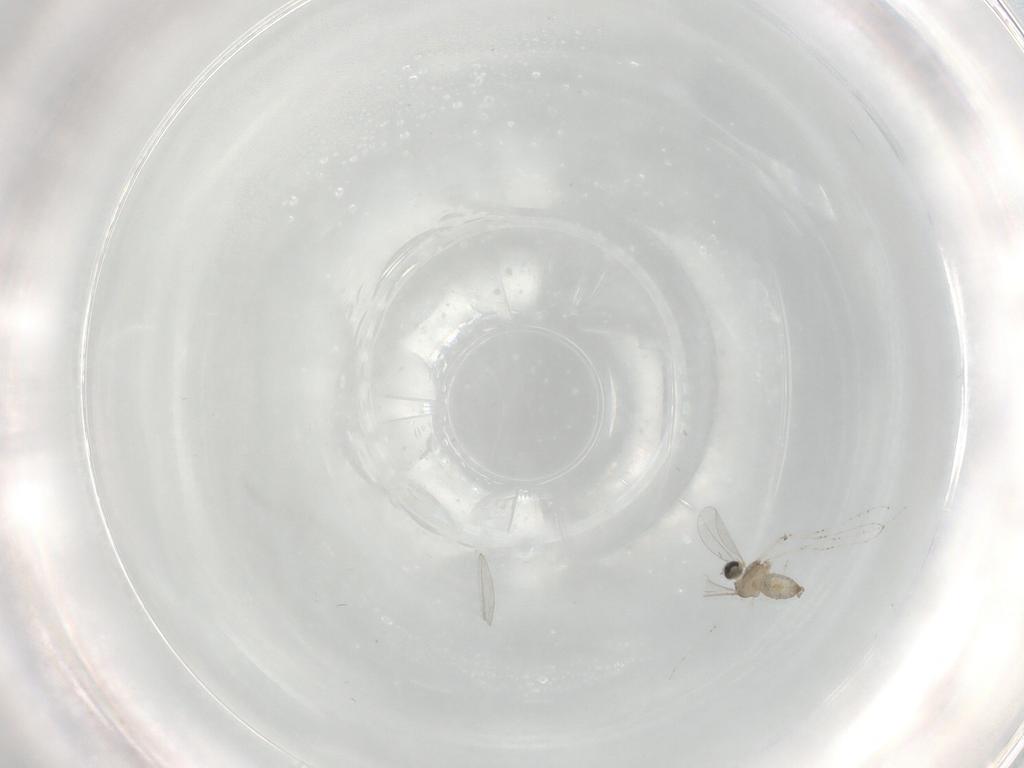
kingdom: Animalia
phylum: Arthropoda
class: Insecta
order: Diptera
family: Cecidomyiidae
